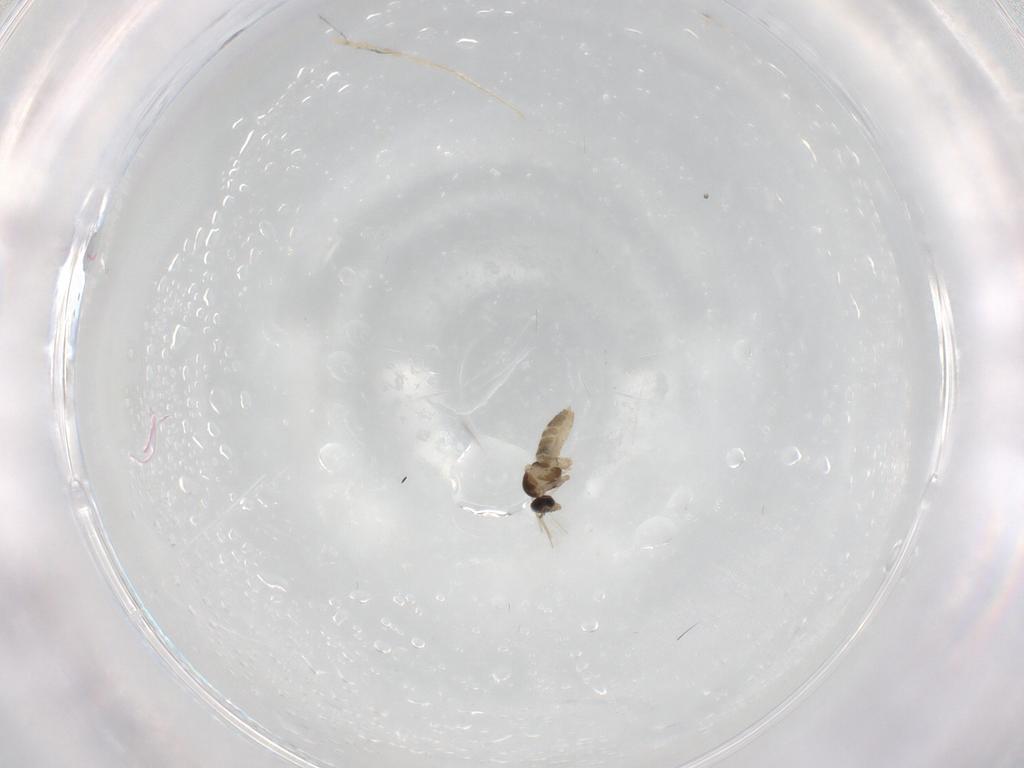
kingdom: Animalia
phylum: Arthropoda
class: Insecta
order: Diptera
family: Cecidomyiidae
